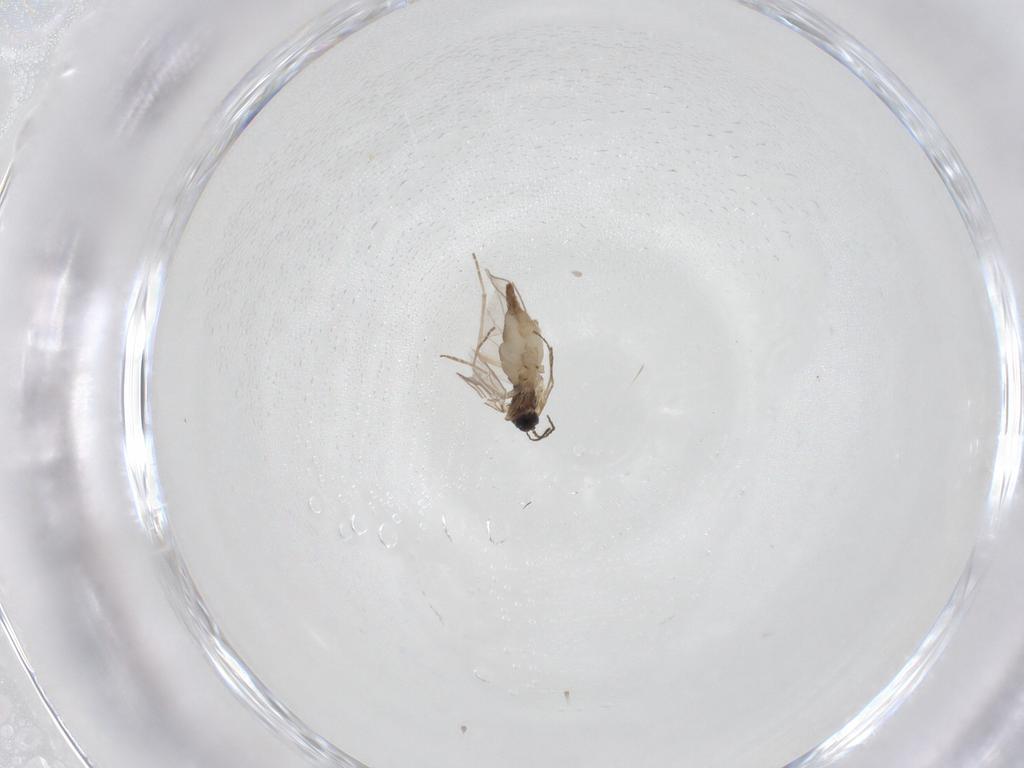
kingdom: Animalia
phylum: Arthropoda
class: Insecta
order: Diptera
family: Sciaridae
